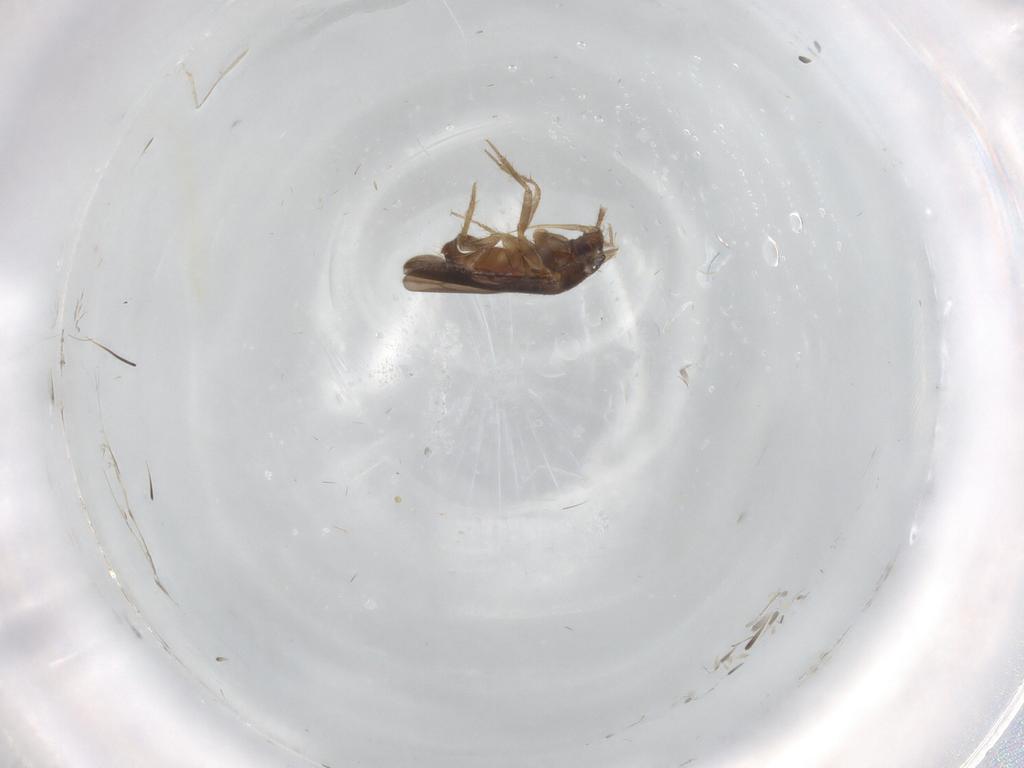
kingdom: Animalia
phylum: Arthropoda
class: Insecta
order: Hemiptera
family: Ceratocombidae
